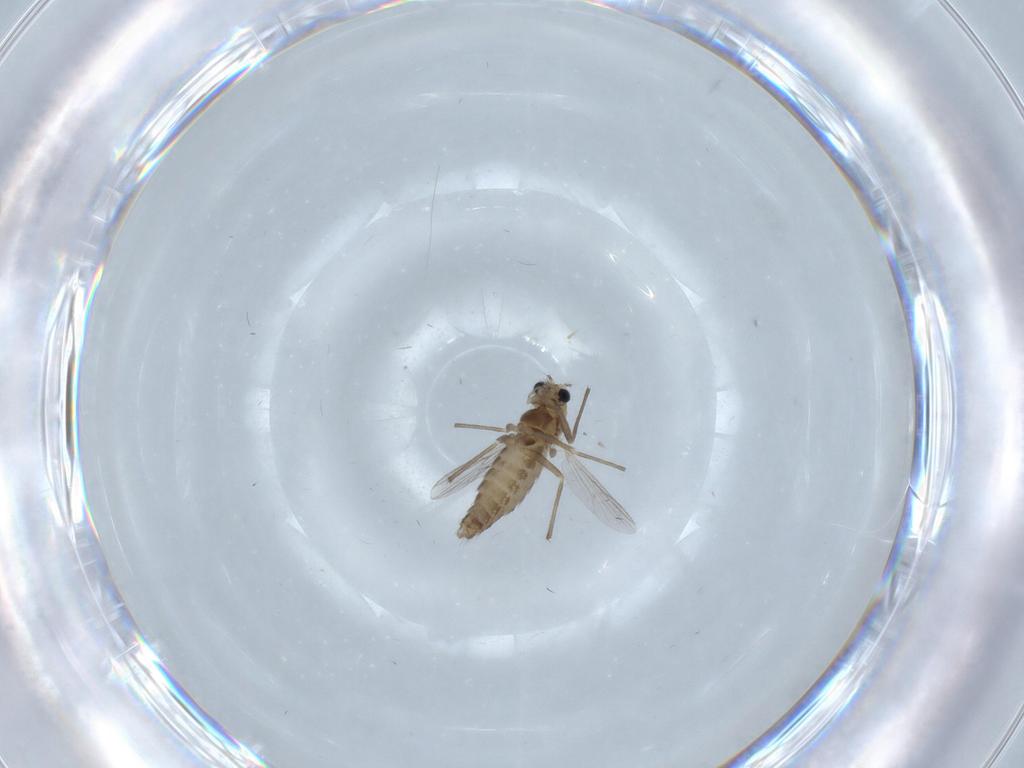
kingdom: Animalia
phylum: Arthropoda
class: Insecta
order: Diptera
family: Chironomidae
